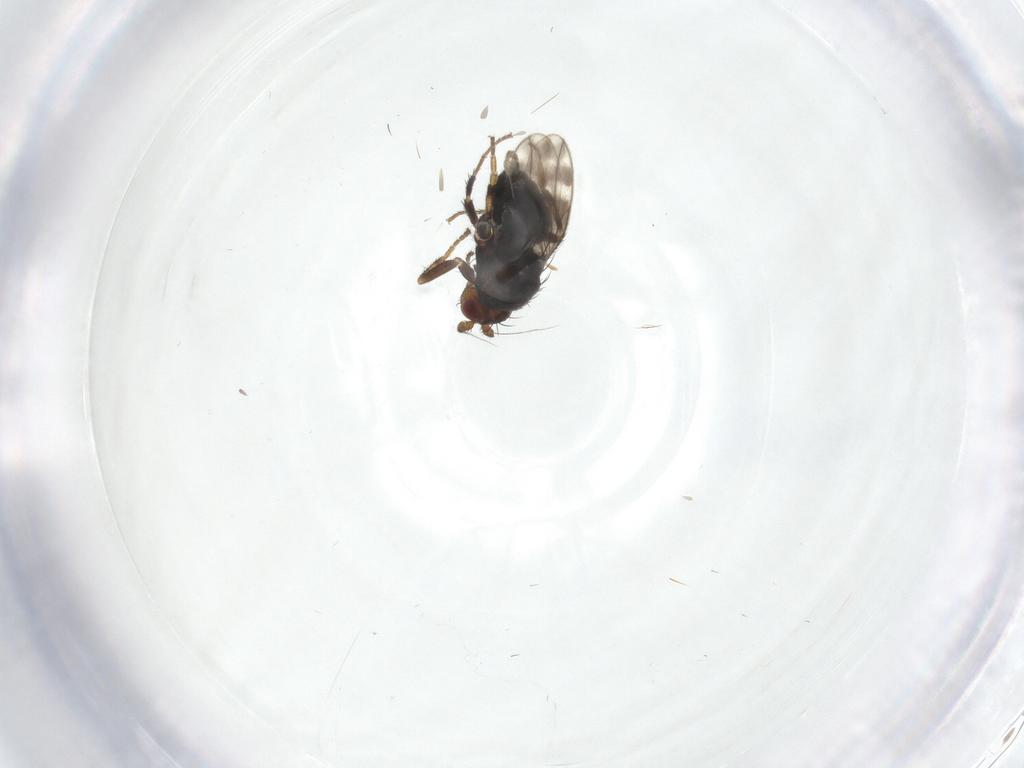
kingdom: Animalia
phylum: Arthropoda
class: Insecta
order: Diptera
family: Sphaeroceridae
